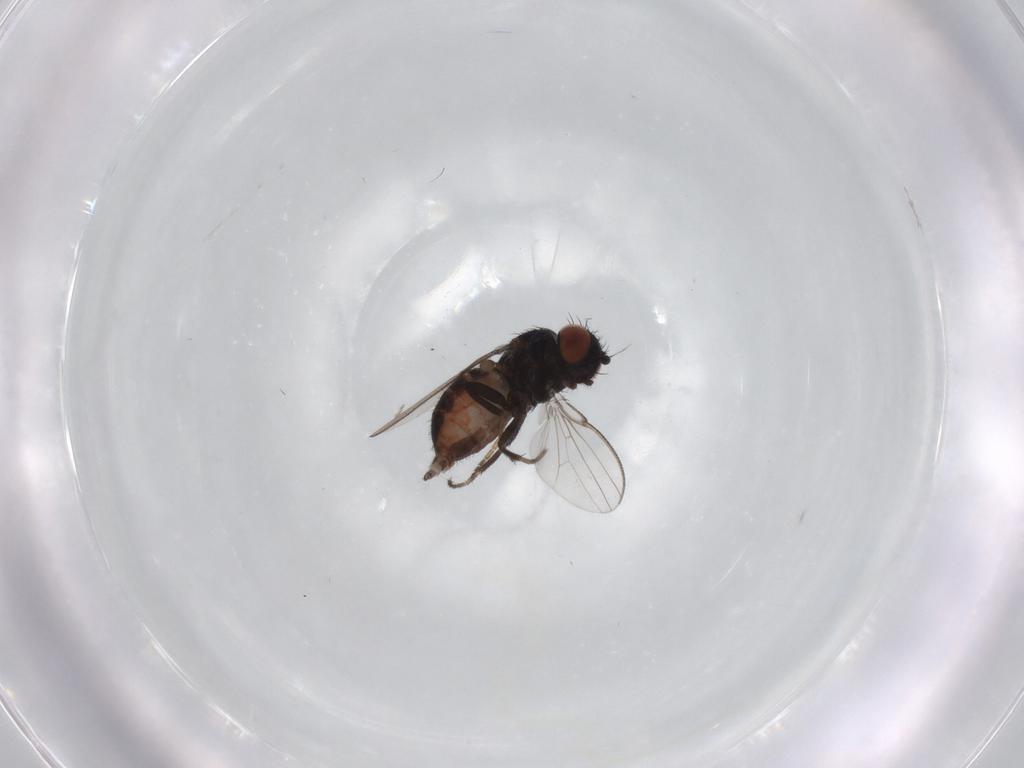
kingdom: Animalia
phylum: Arthropoda
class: Insecta
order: Diptera
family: Milichiidae
